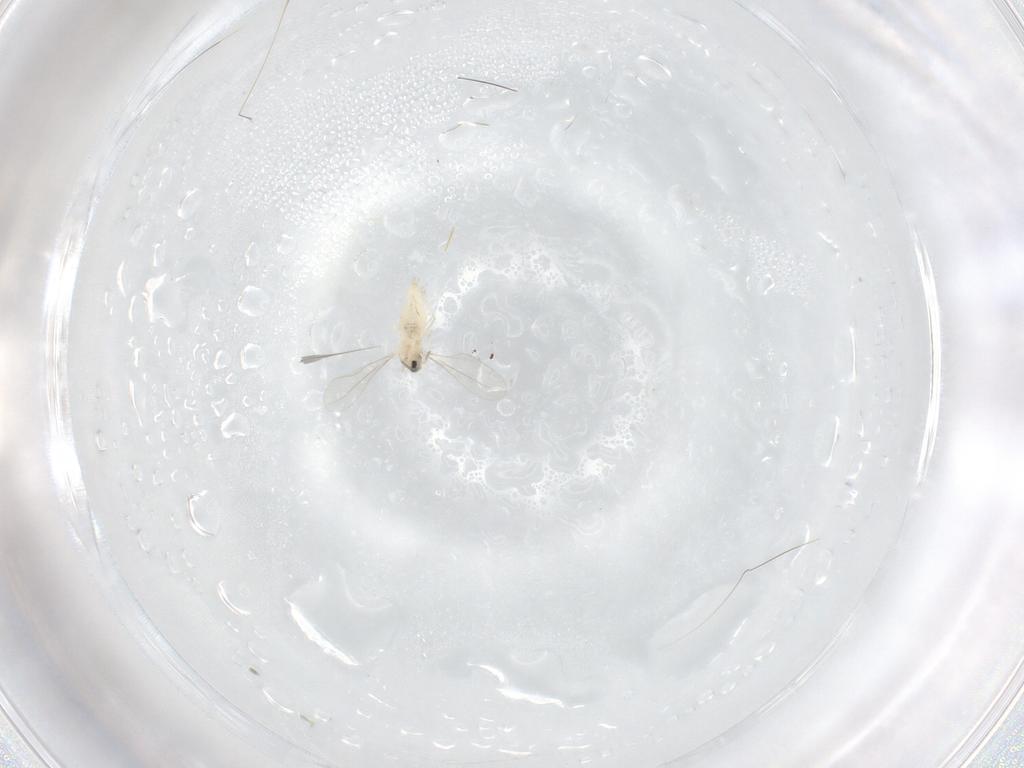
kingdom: Animalia
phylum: Arthropoda
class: Insecta
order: Diptera
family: Cecidomyiidae
